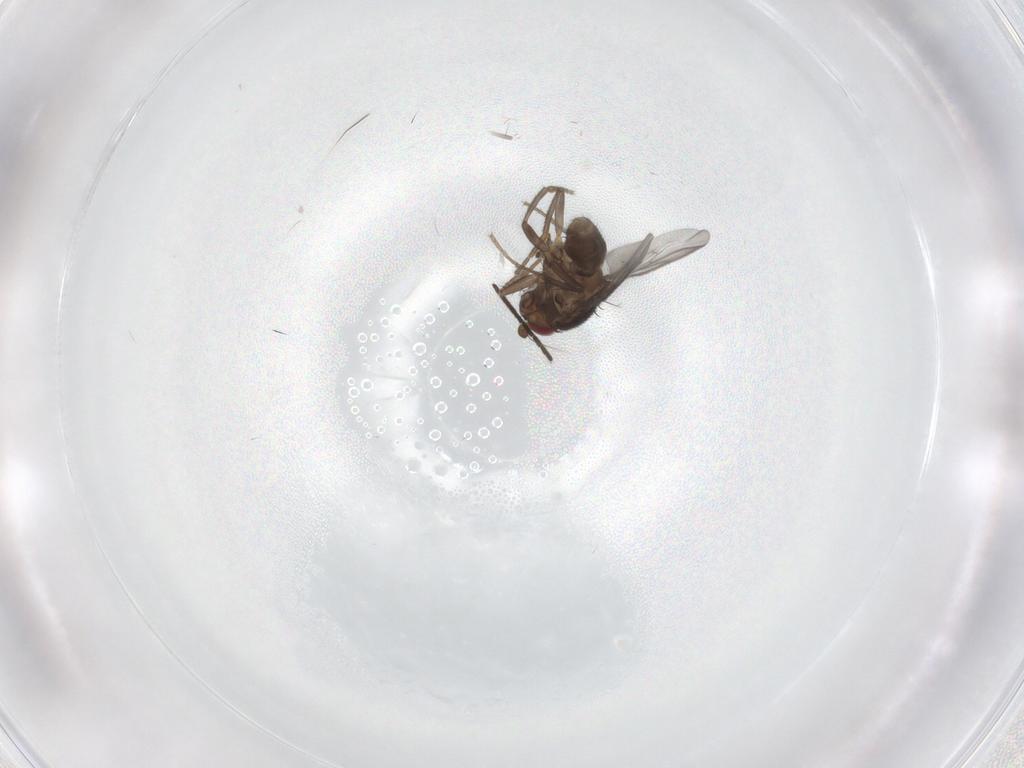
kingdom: Animalia
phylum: Arthropoda
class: Insecta
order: Diptera
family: Sphaeroceridae
